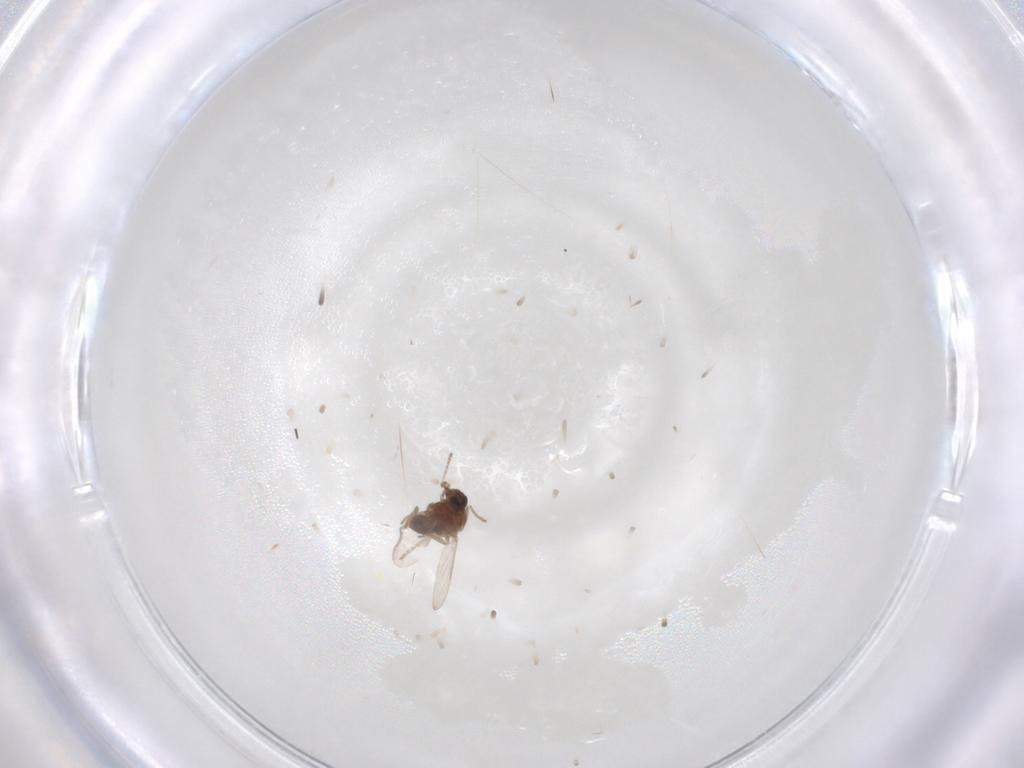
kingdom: Animalia
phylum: Arthropoda
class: Insecta
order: Diptera
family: Ceratopogonidae
